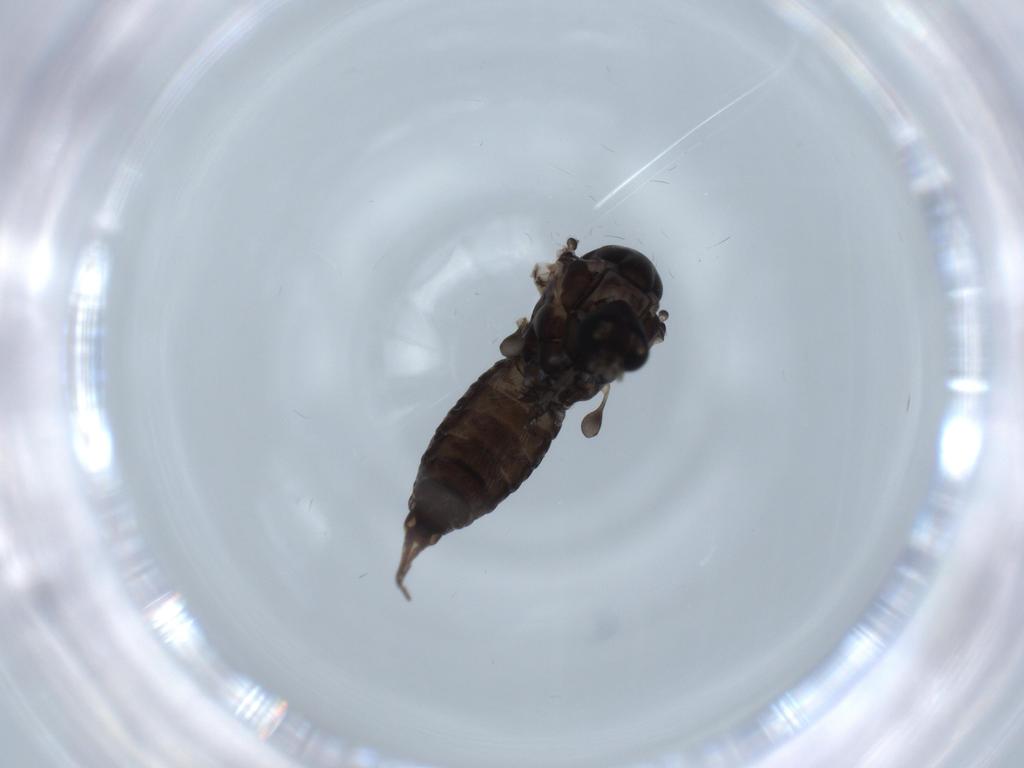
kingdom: Animalia
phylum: Arthropoda
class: Insecta
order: Diptera
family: Sciaridae
